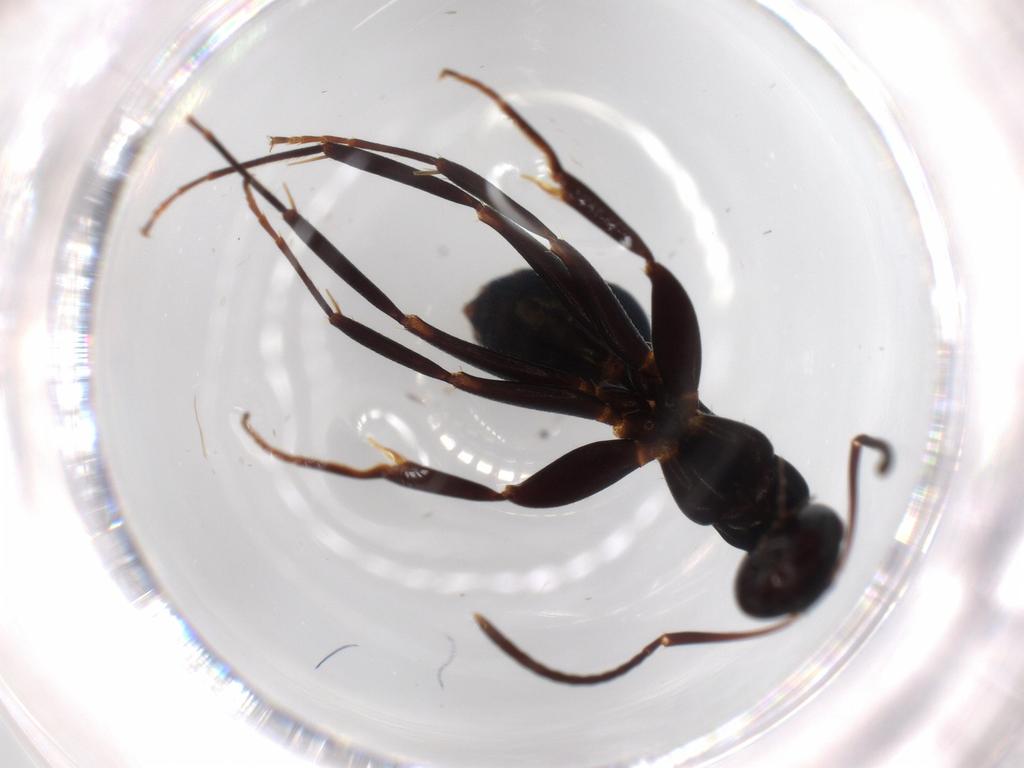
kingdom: Animalia
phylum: Arthropoda
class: Insecta
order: Hymenoptera
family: Formicidae
